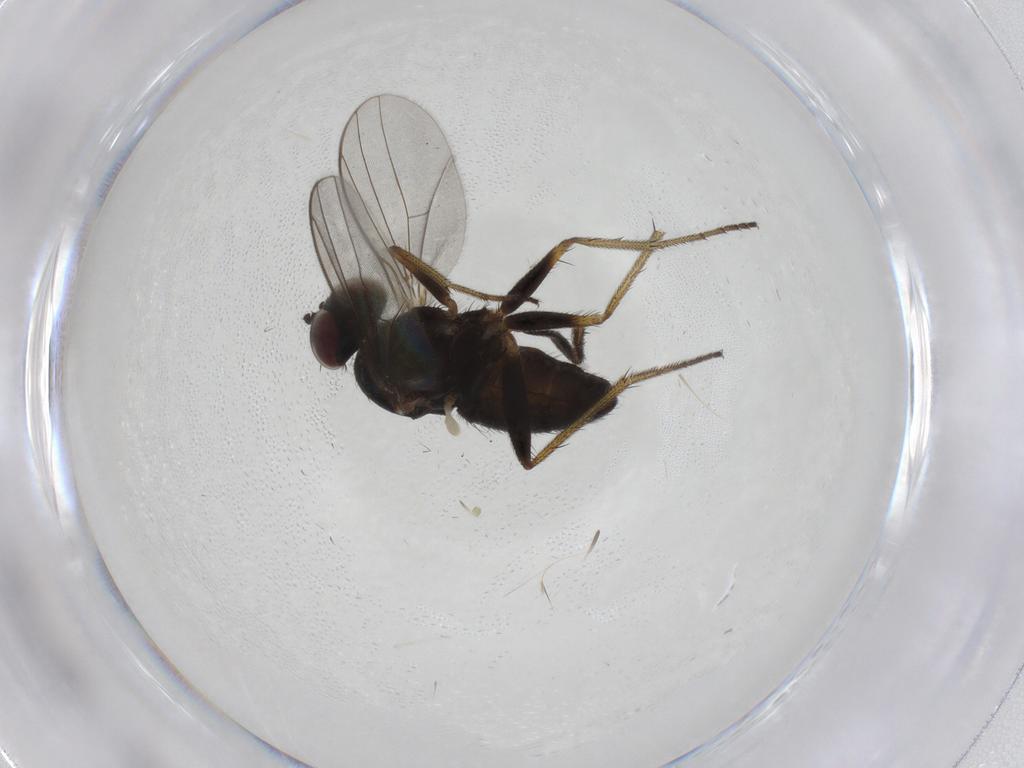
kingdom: Animalia
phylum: Arthropoda
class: Insecta
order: Diptera
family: Dolichopodidae
